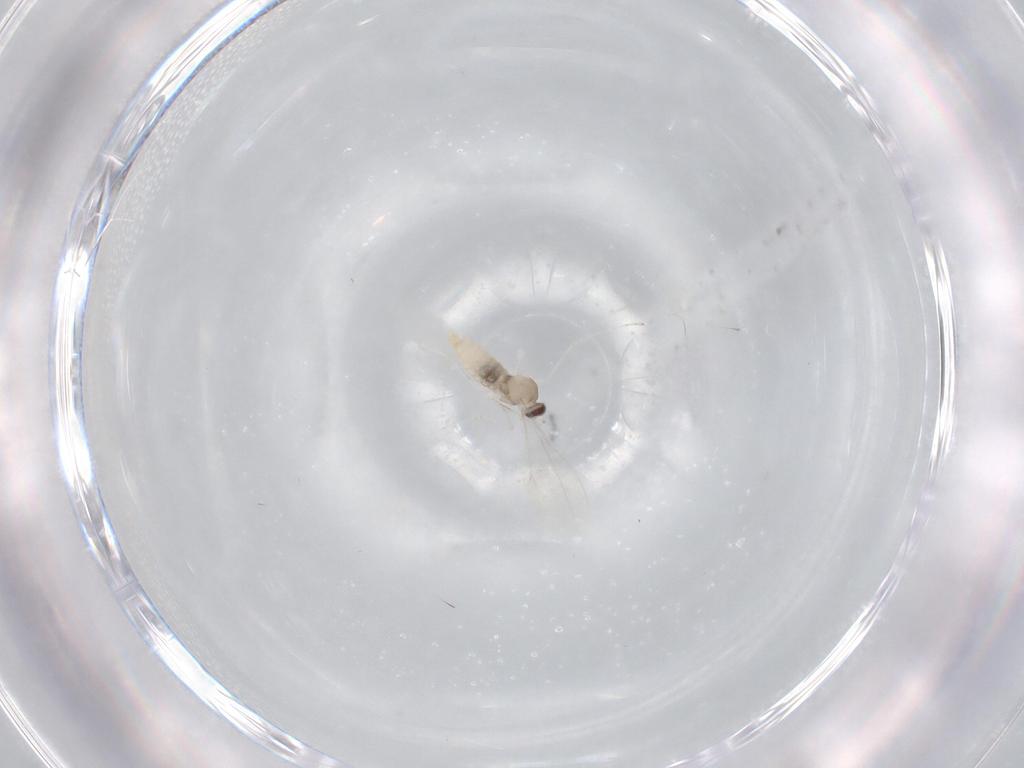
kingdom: Animalia
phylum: Arthropoda
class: Insecta
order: Diptera
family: Cecidomyiidae
